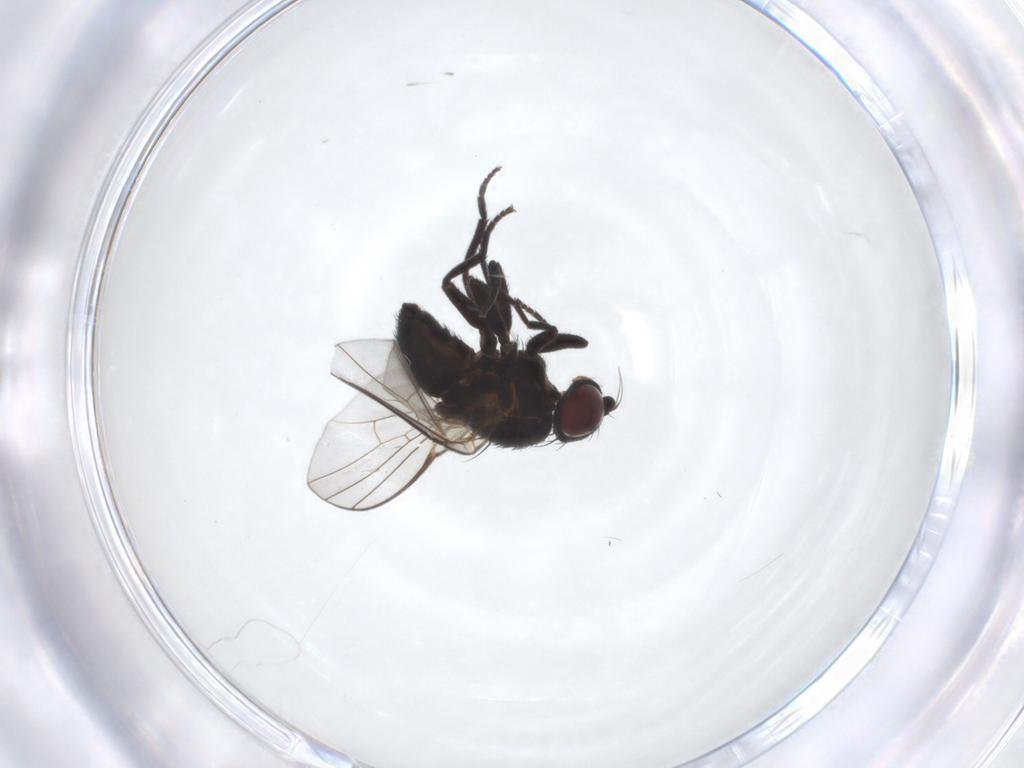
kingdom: Animalia
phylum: Arthropoda
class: Insecta
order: Diptera
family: Agromyzidae
